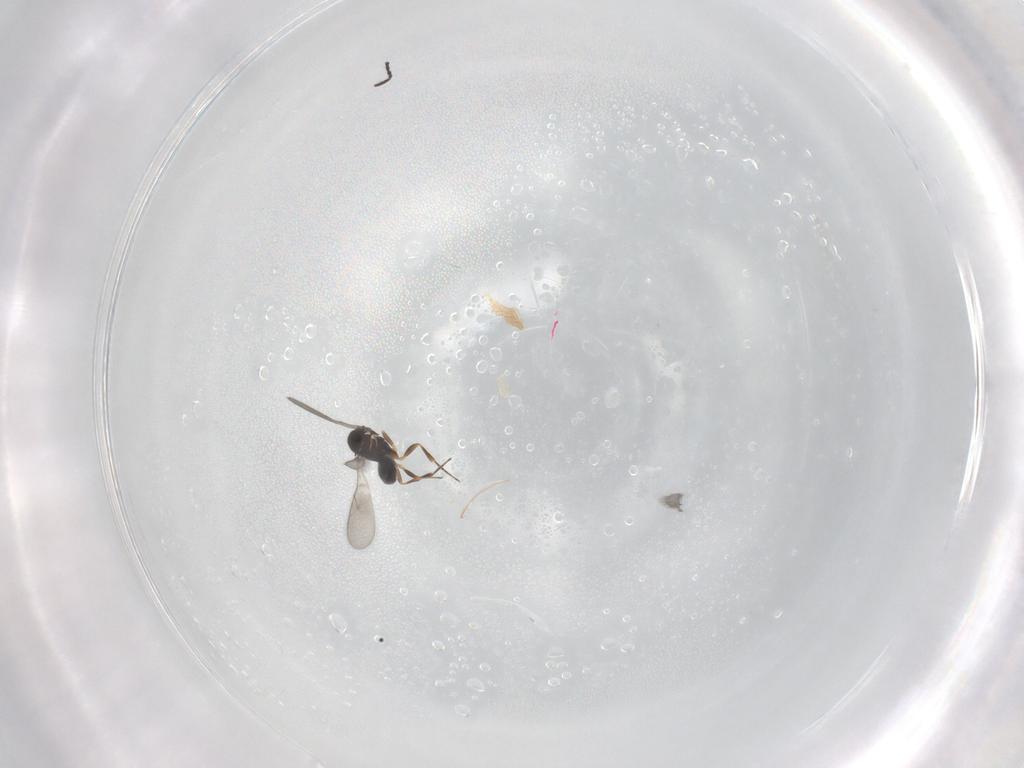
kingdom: Animalia
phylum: Arthropoda
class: Insecta
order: Hymenoptera
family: Scelionidae
